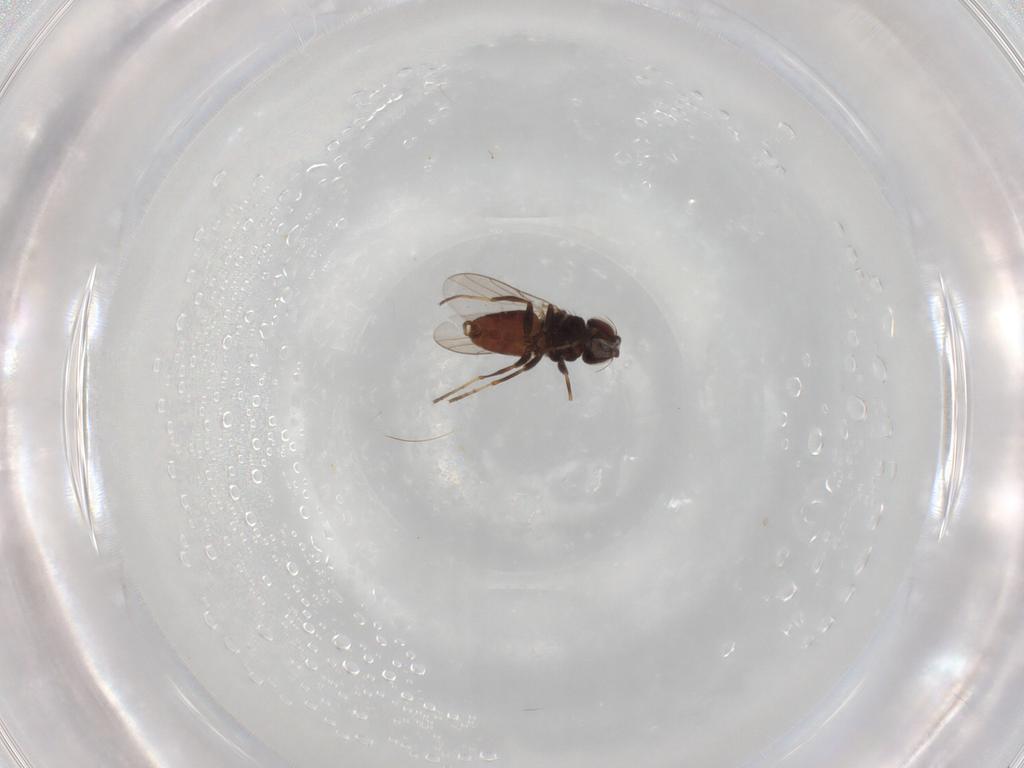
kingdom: Animalia
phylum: Arthropoda
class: Insecta
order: Diptera
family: Chloropidae
